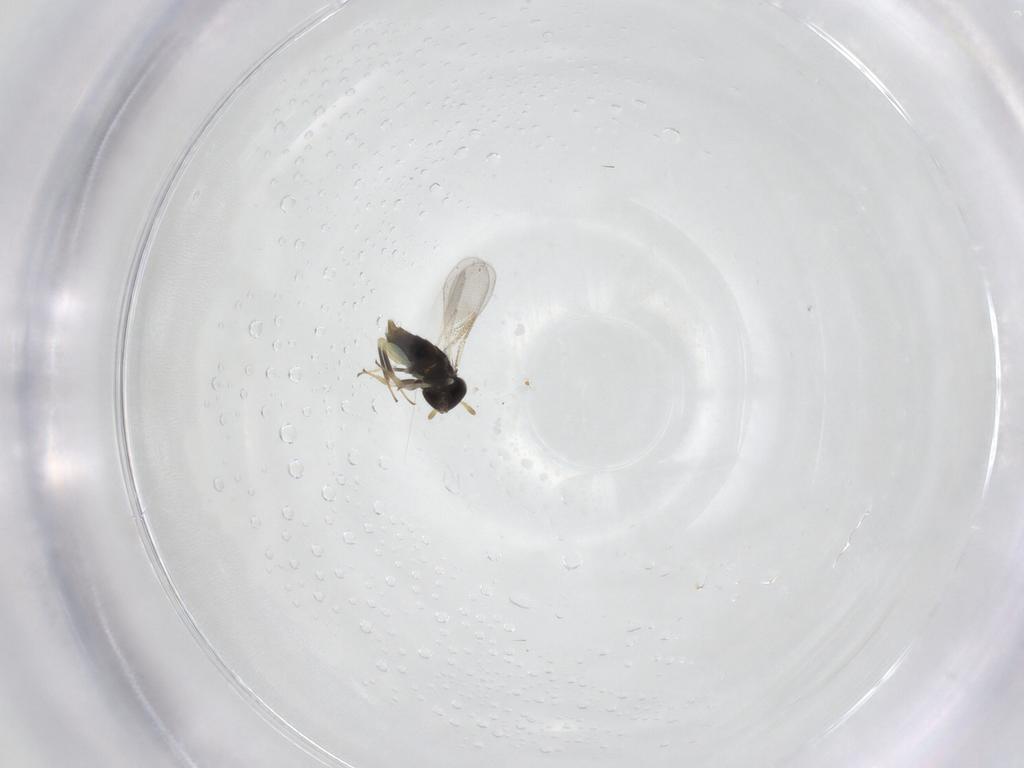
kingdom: Animalia
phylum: Arthropoda
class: Insecta
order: Hymenoptera
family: Aphelinidae
